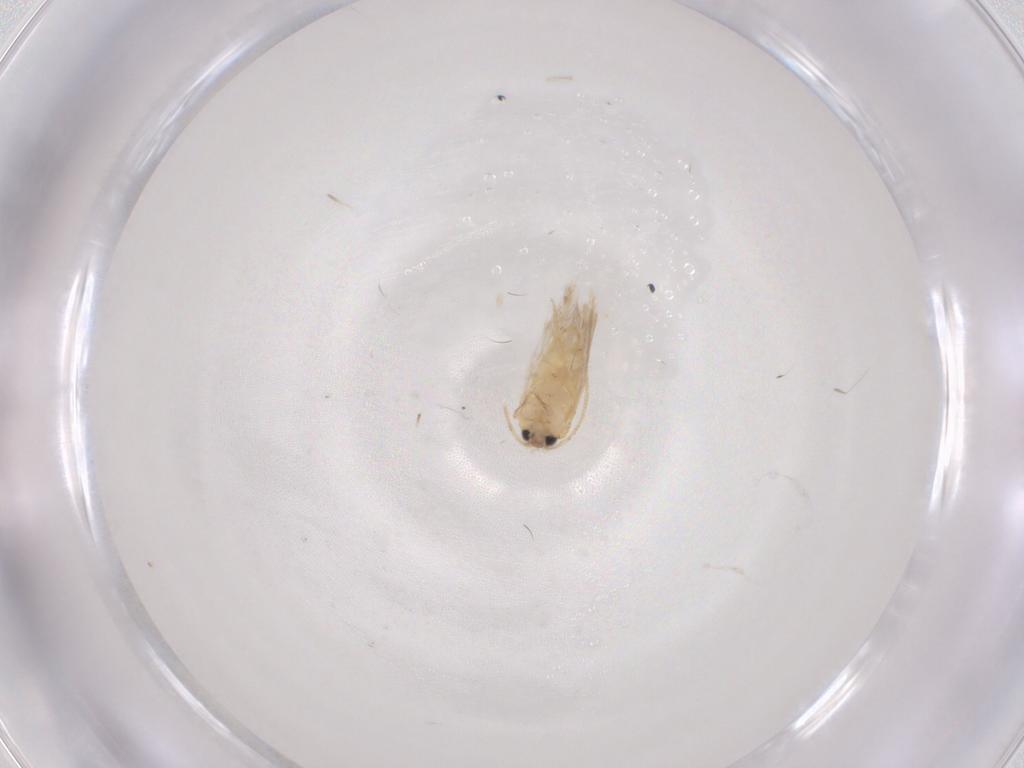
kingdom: Animalia
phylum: Arthropoda
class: Insecta
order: Lepidoptera
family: Nepticulidae
